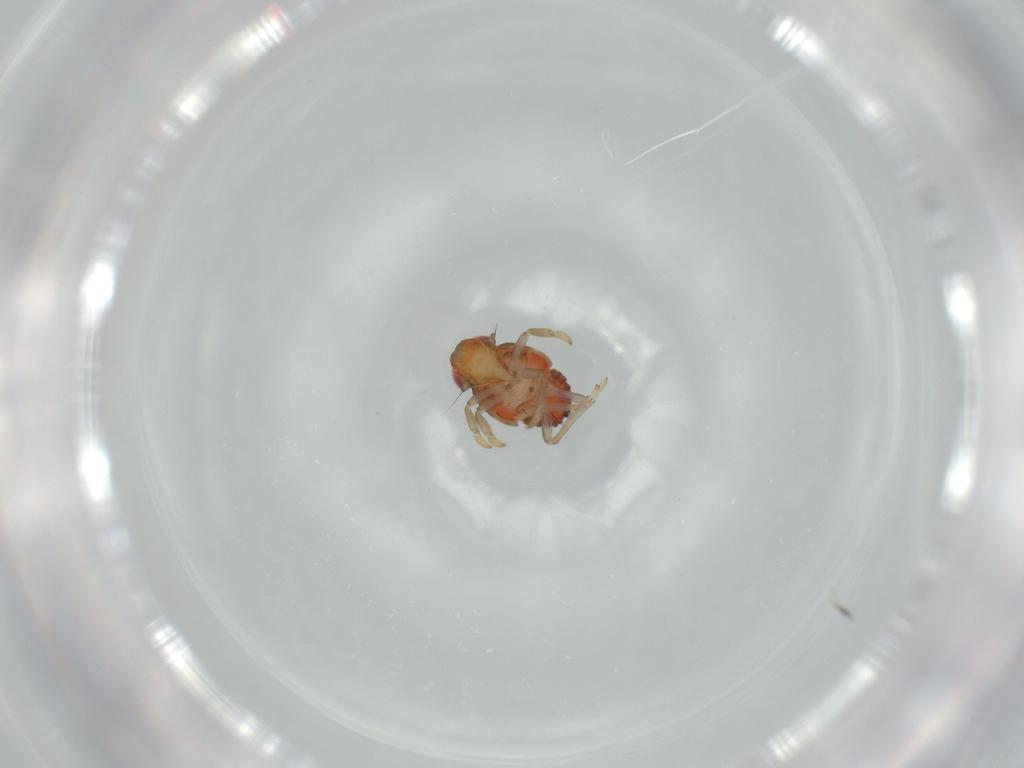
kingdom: Animalia
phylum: Arthropoda
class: Insecta
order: Hemiptera
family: Issidae
